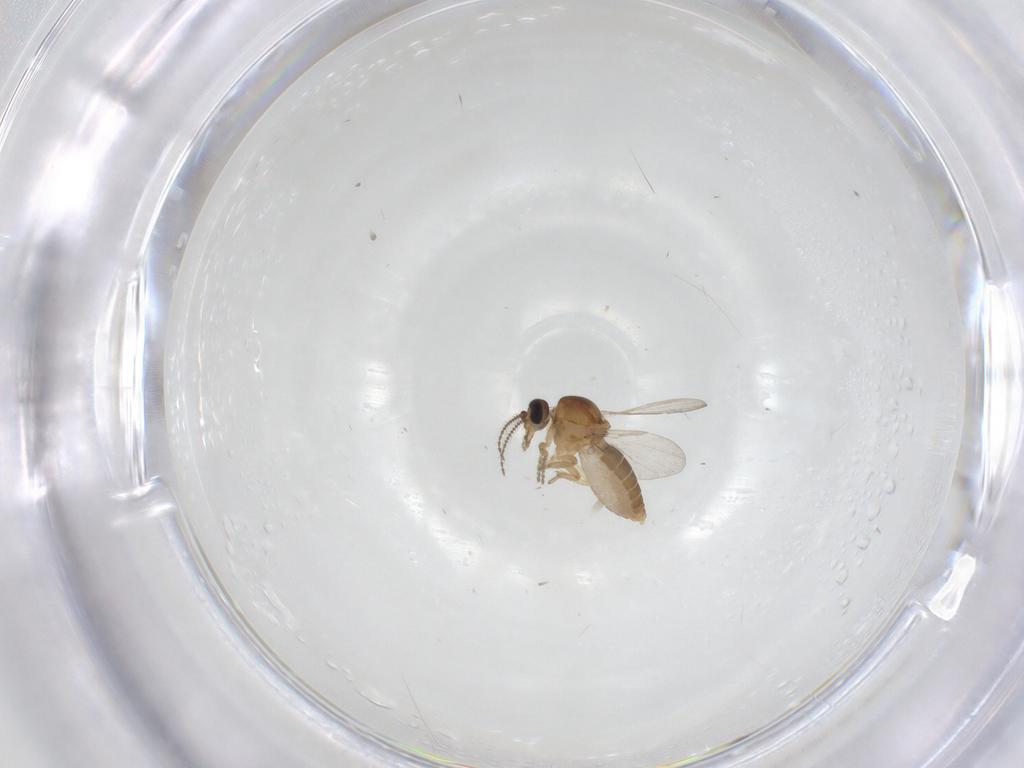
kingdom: Animalia
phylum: Arthropoda
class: Insecta
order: Diptera
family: Ceratopogonidae
